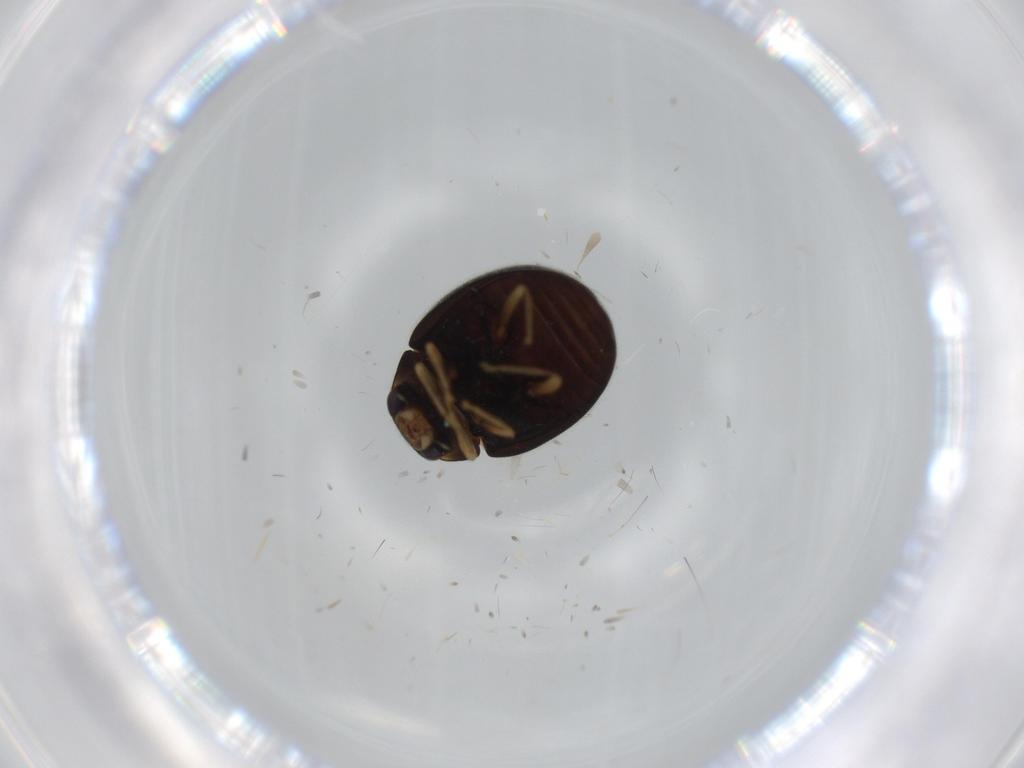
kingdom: Animalia
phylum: Arthropoda
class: Insecta
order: Coleoptera
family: Coccinellidae
